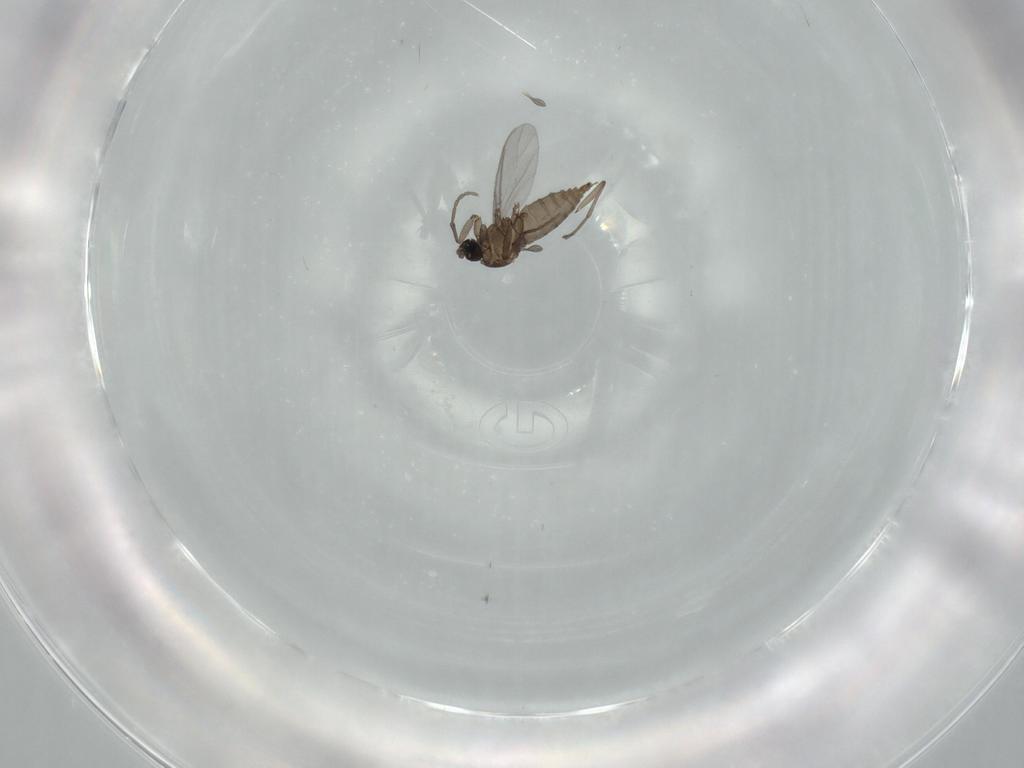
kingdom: Animalia
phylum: Arthropoda
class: Insecta
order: Diptera
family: Sciaridae
